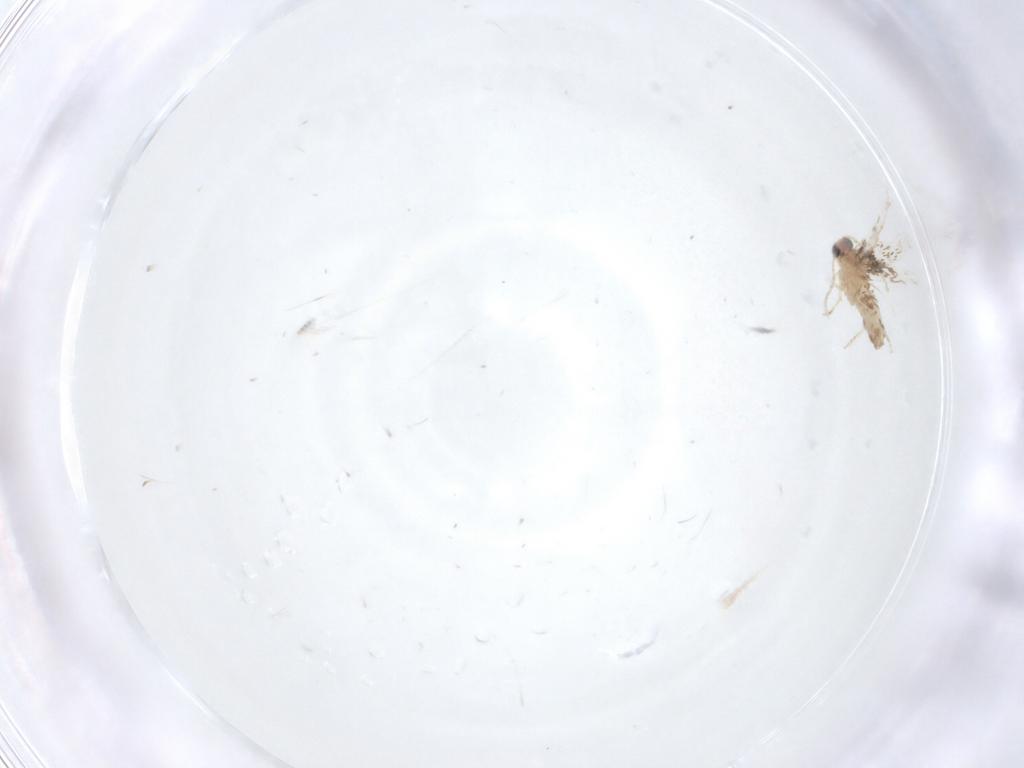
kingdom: Animalia
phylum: Arthropoda
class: Insecta
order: Lepidoptera
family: Nepticulidae
